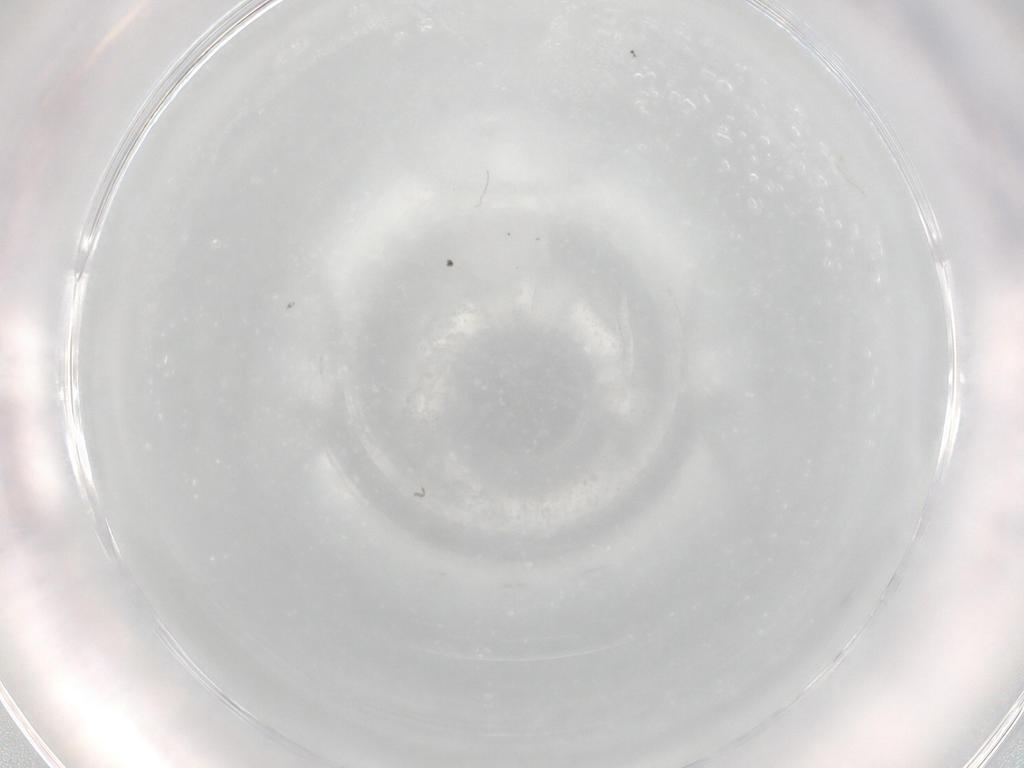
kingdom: Animalia
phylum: Arthropoda
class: Arachnida
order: Sarcoptiformes
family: Eremaeidae
